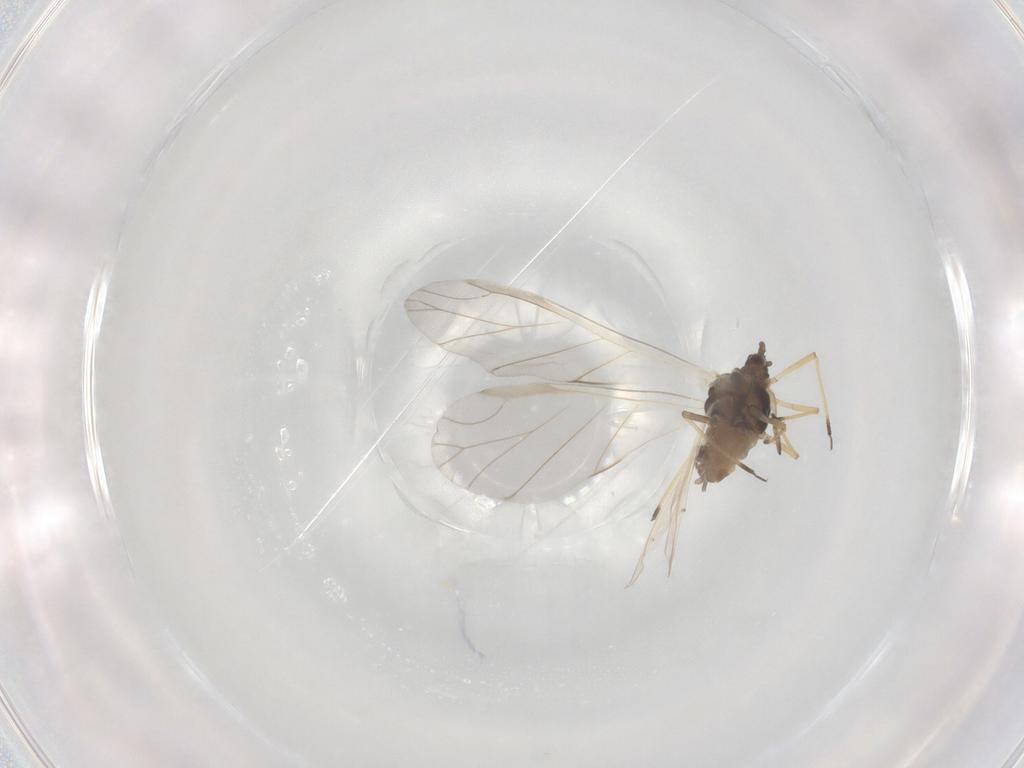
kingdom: Animalia
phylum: Arthropoda
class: Insecta
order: Hemiptera
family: Aphididae
